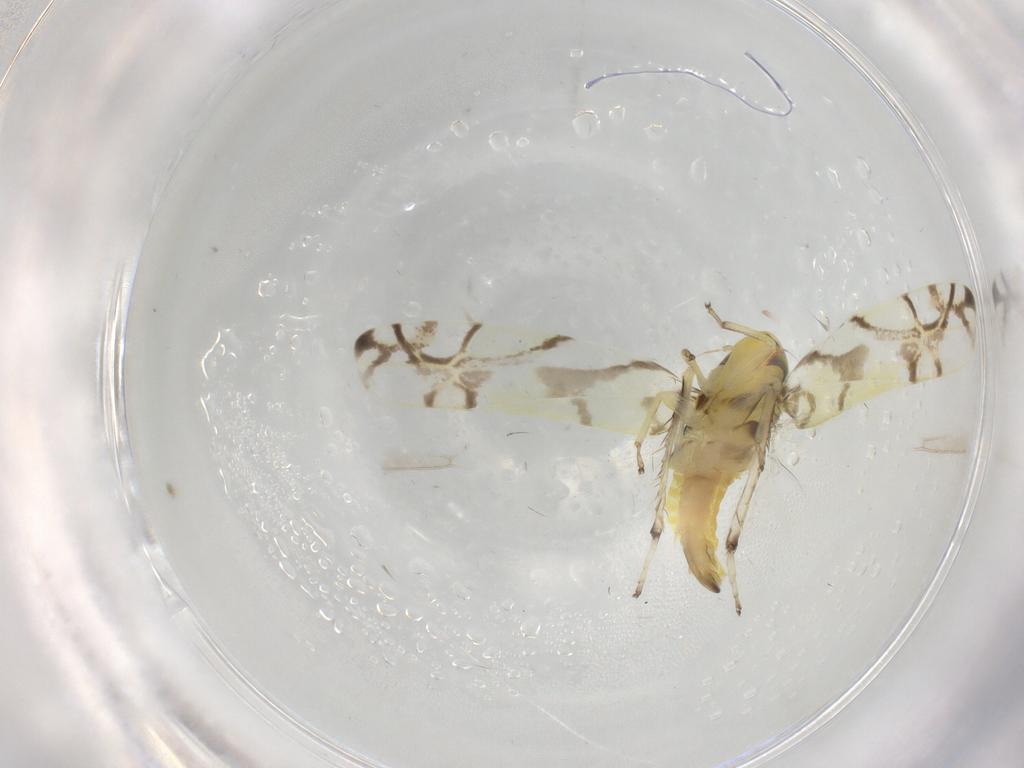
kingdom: Animalia
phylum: Arthropoda
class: Insecta
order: Hemiptera
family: Cicadellidae
